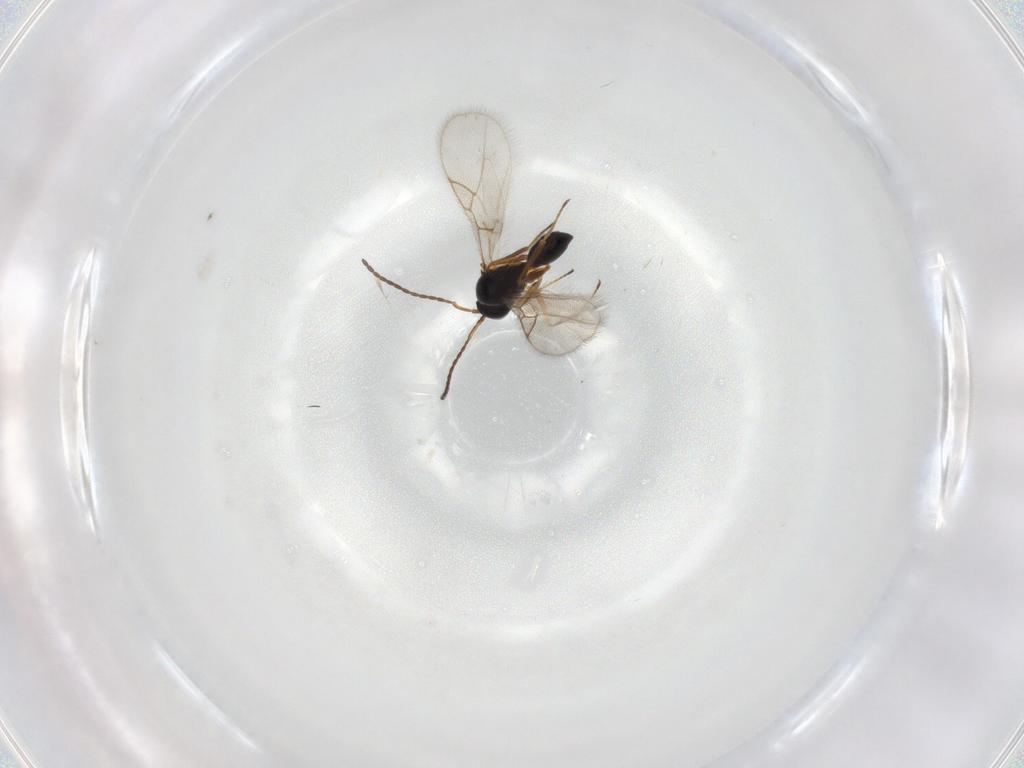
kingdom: Animalia
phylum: Arthropoda
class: Insecta
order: Hymenoptera
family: Figitidae
